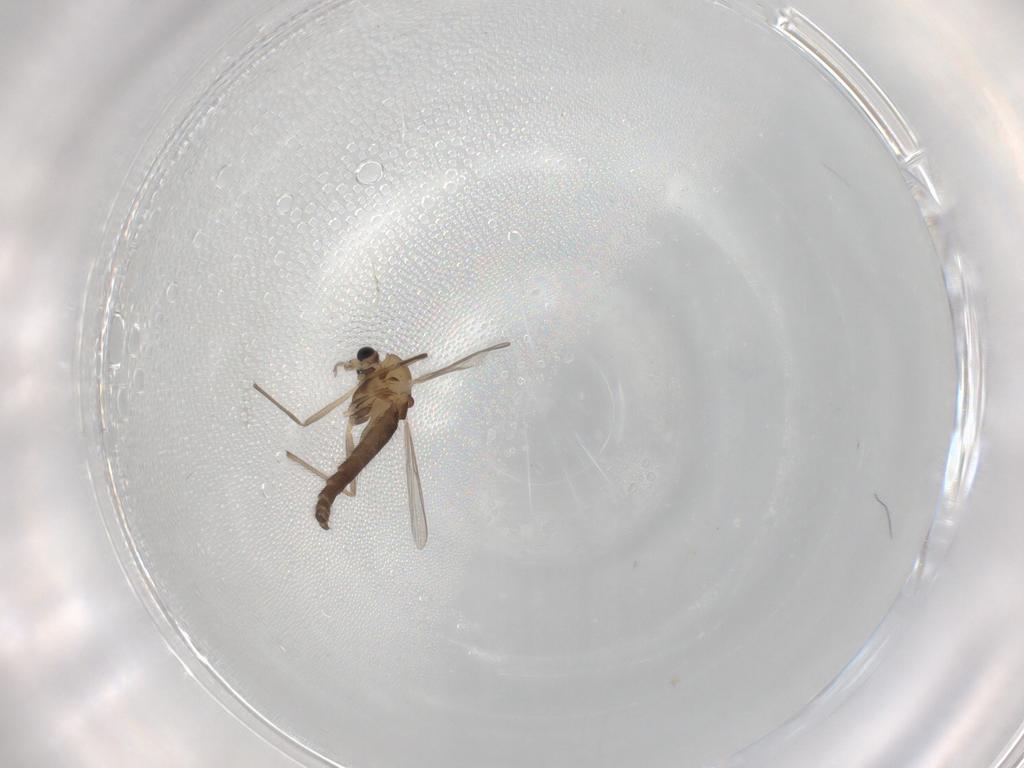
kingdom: Animalia
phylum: Arthropoda
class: Insecta
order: Diptera
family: Chironomidae
